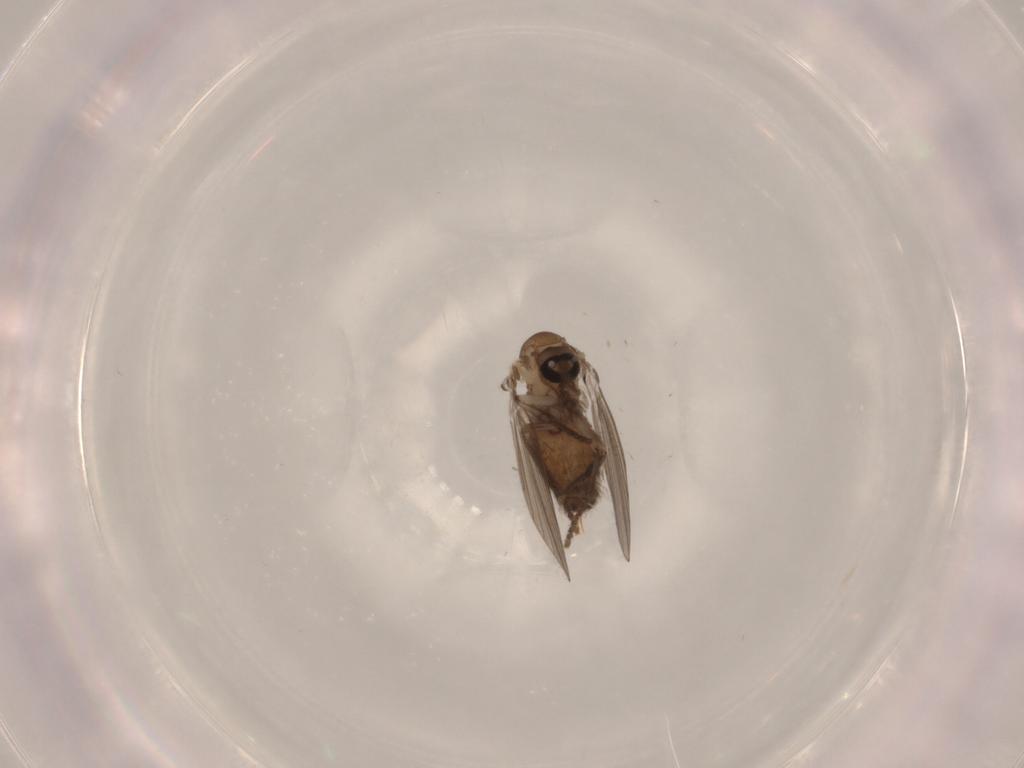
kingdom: Animalia
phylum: Arthropoda
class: Insecta
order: Diptera
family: Psychodidae
